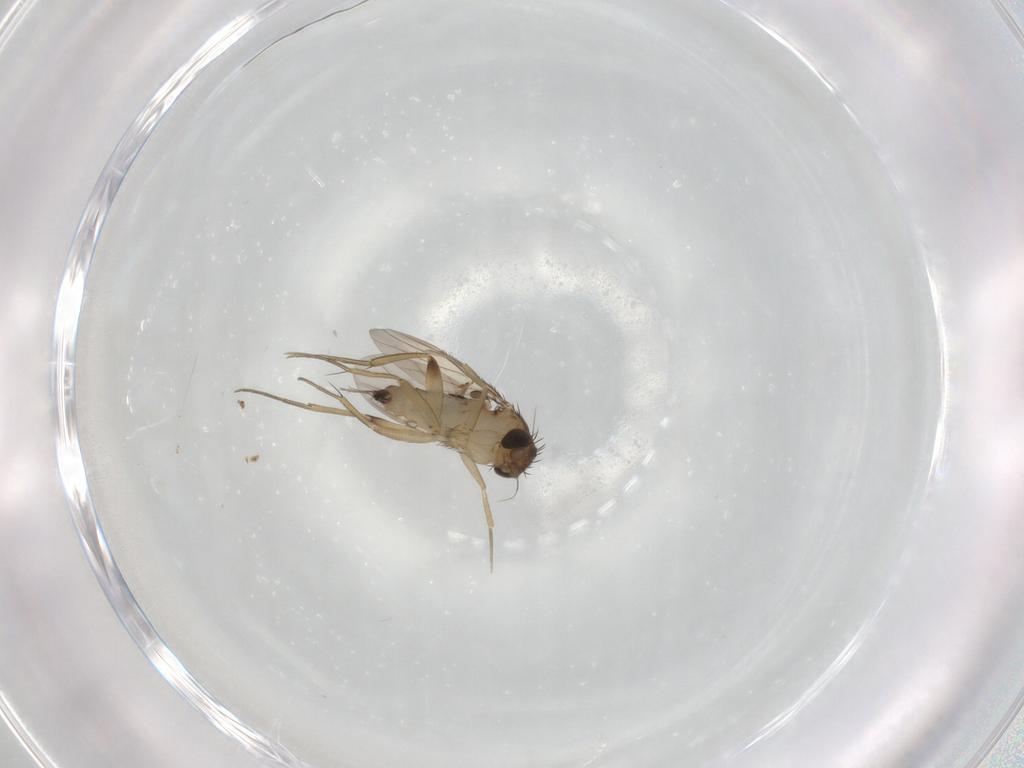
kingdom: Animalia
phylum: Arthropoda
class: Insecta
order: Diptera
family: Phoridae
